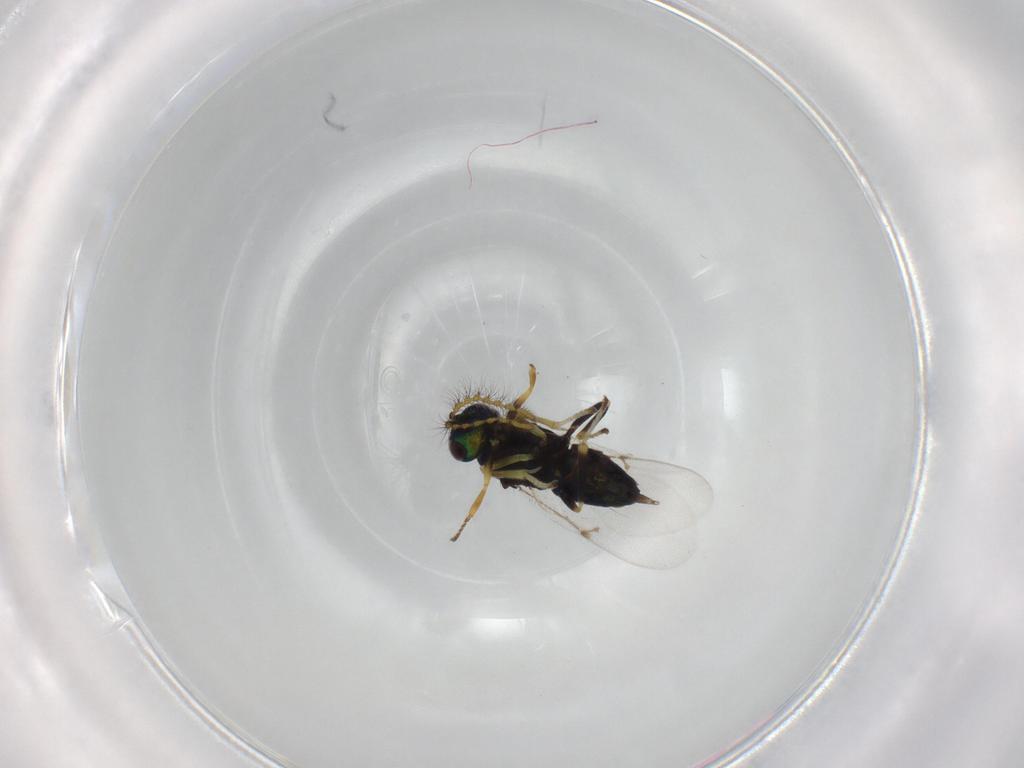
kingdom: Animalia
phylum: Arthropoda
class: Insecta
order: Hymenoptera
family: Encyrtidae
